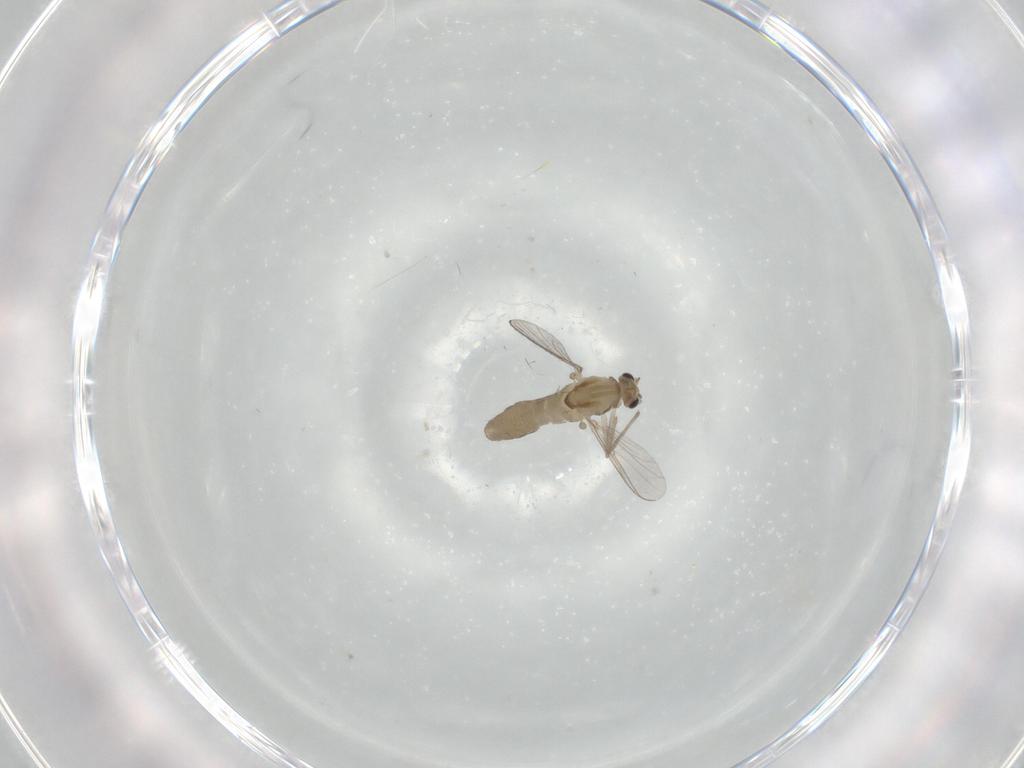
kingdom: Animalia
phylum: Arthropoda
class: Insecta
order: Diptera
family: Chironomidae
